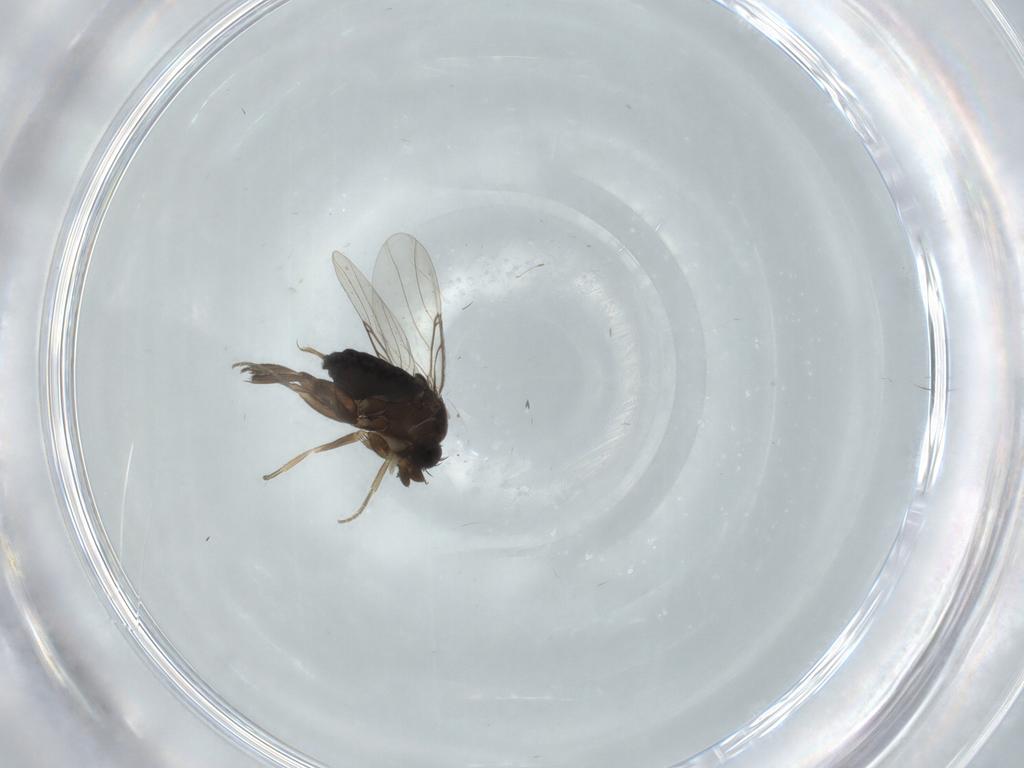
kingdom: Animalia
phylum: Arthropoda
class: Insecta
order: Diptera
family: Phoridae
